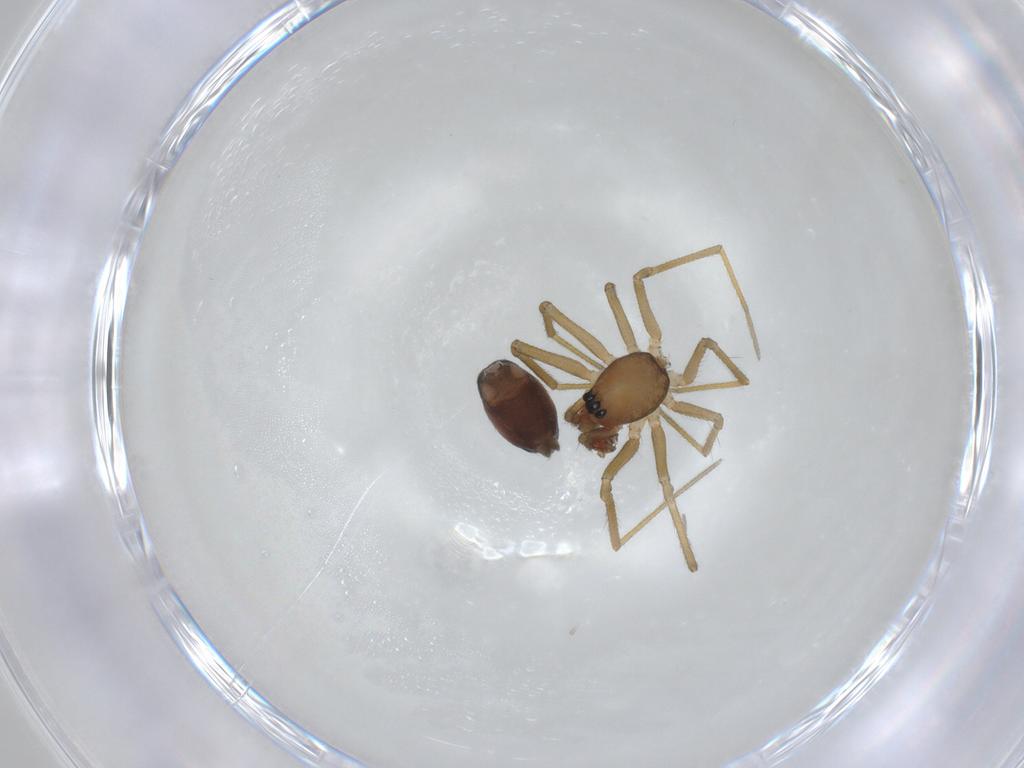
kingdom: Animalia
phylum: Arthropoda
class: Arachnida
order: Araneae
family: Linyphiidae
